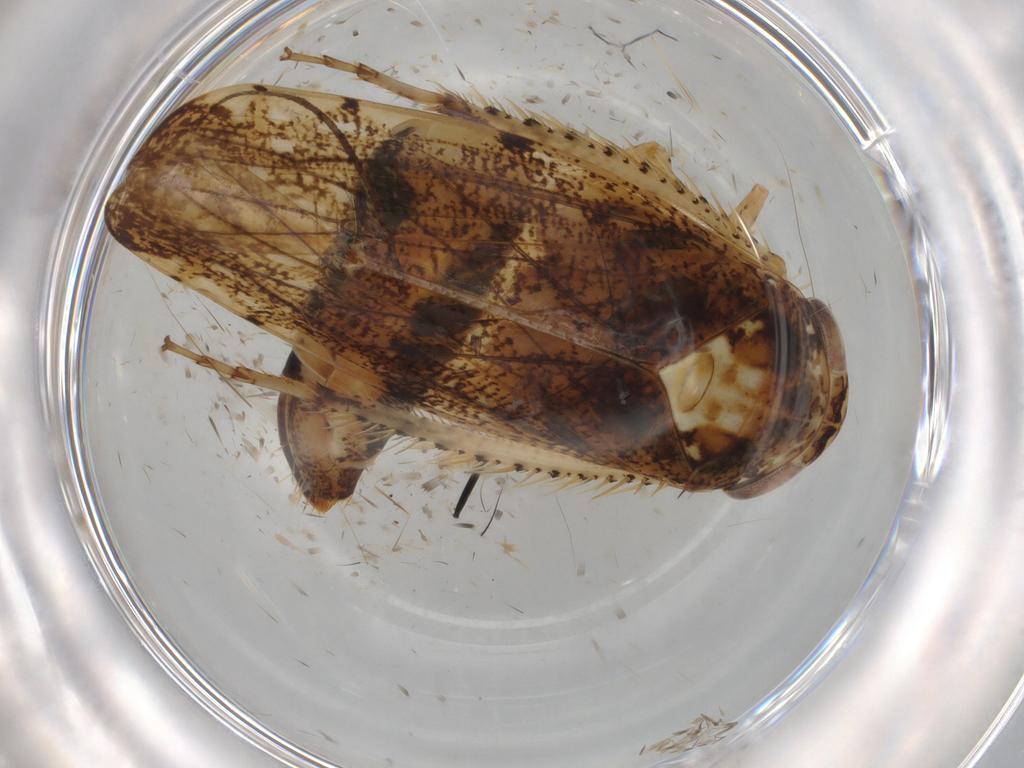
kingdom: Animalia
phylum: Arthropoda
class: Insecta
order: Hemiptera
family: Cicadellidae
